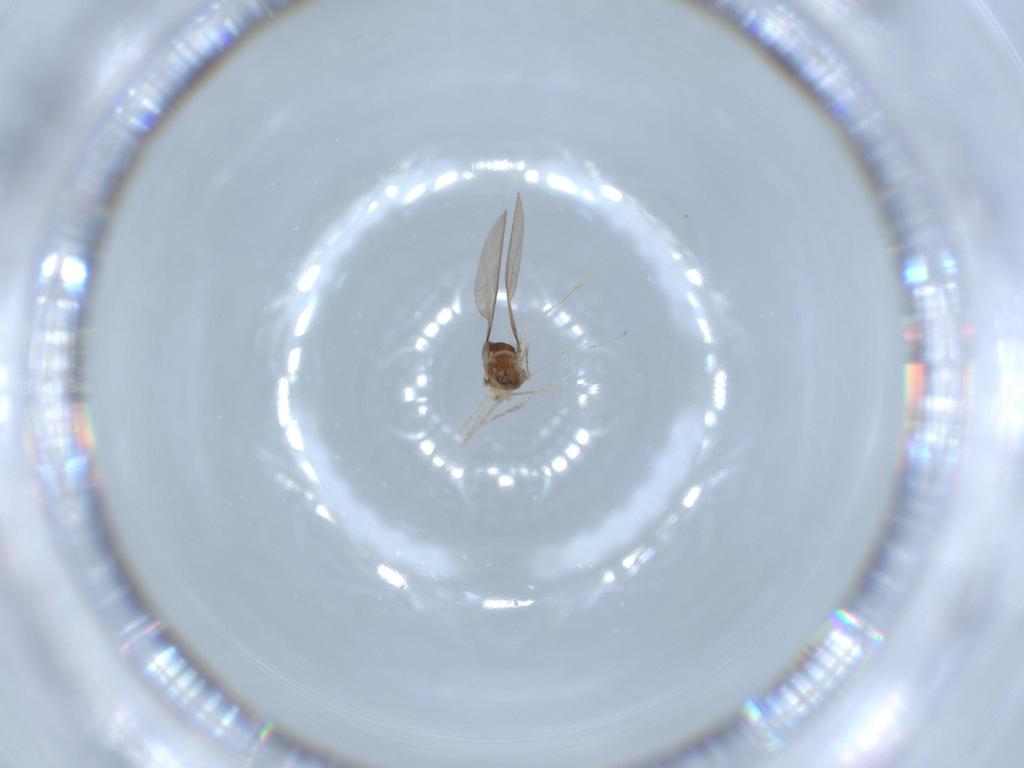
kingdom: Animalia
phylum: Arthropoda
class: Insecta
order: Diptera
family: Cecidomyiidae
